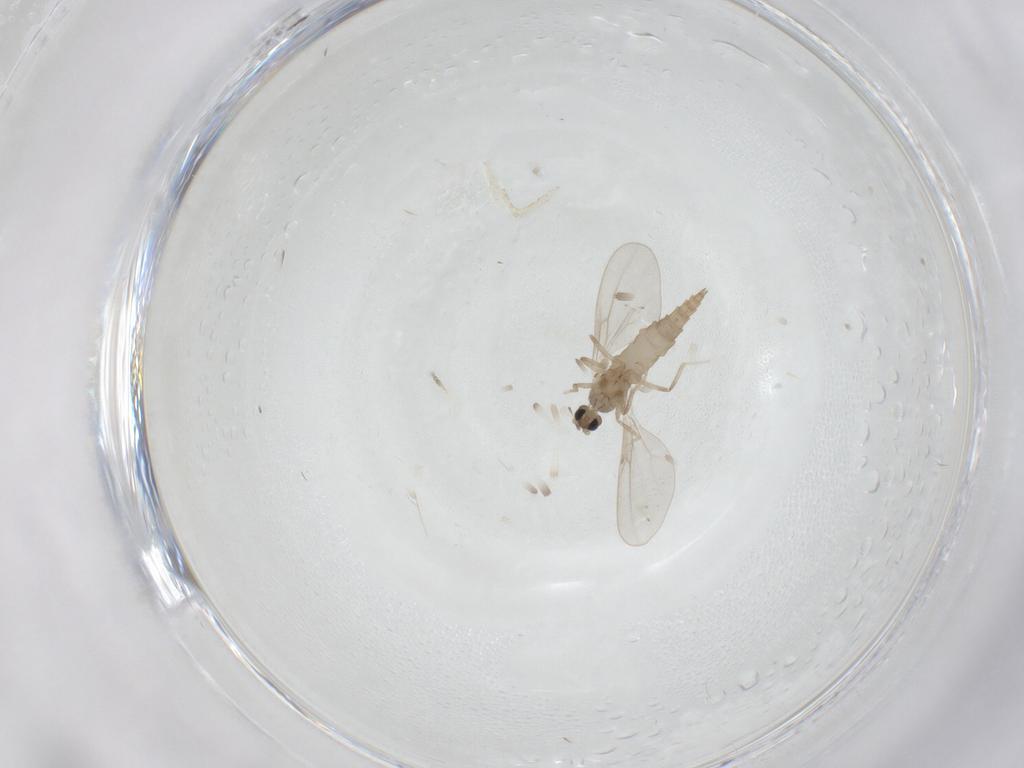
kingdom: Animalia
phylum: Arthropoda
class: Insecta
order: Diptera
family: Cecidomyiidae
